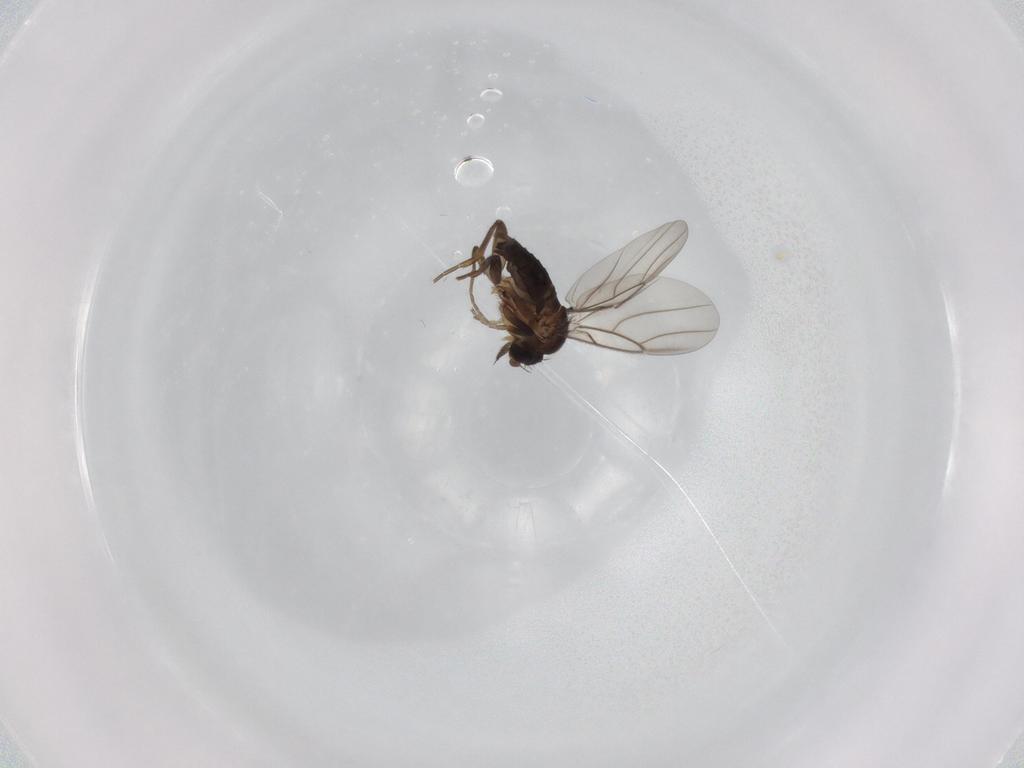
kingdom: Animalia
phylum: Arthropoda
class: Insecta
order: Diptera
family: Phoridae
